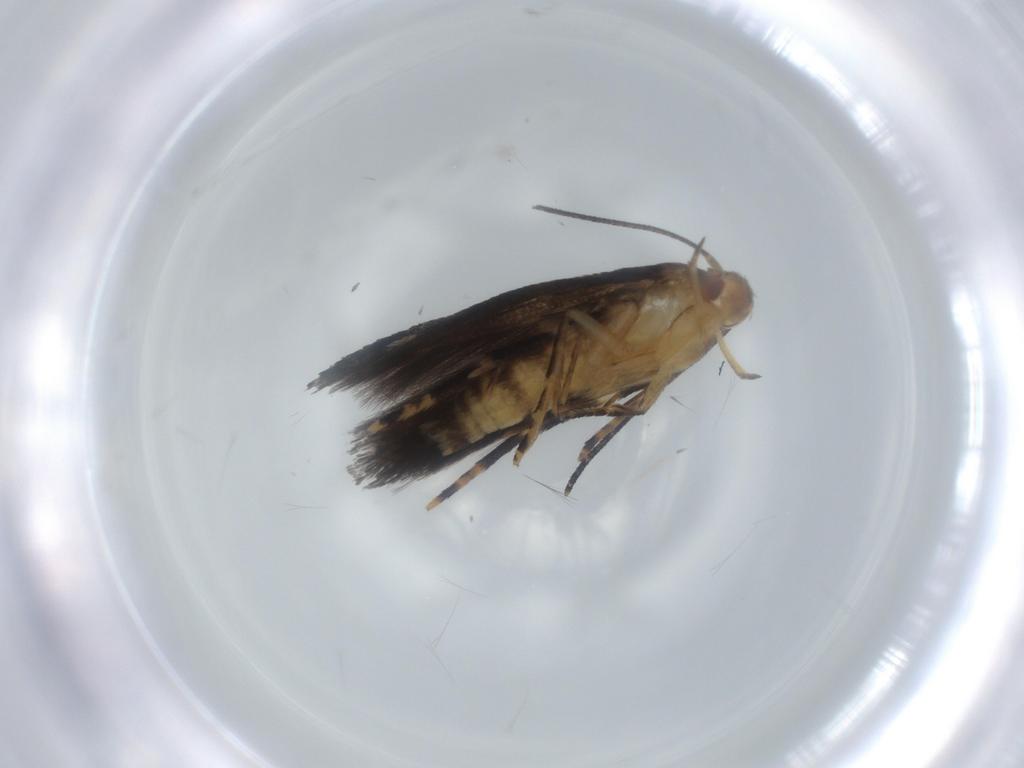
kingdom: Animalia
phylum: Arthropoda
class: Insecta
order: Lepidoptera
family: Momphidae
